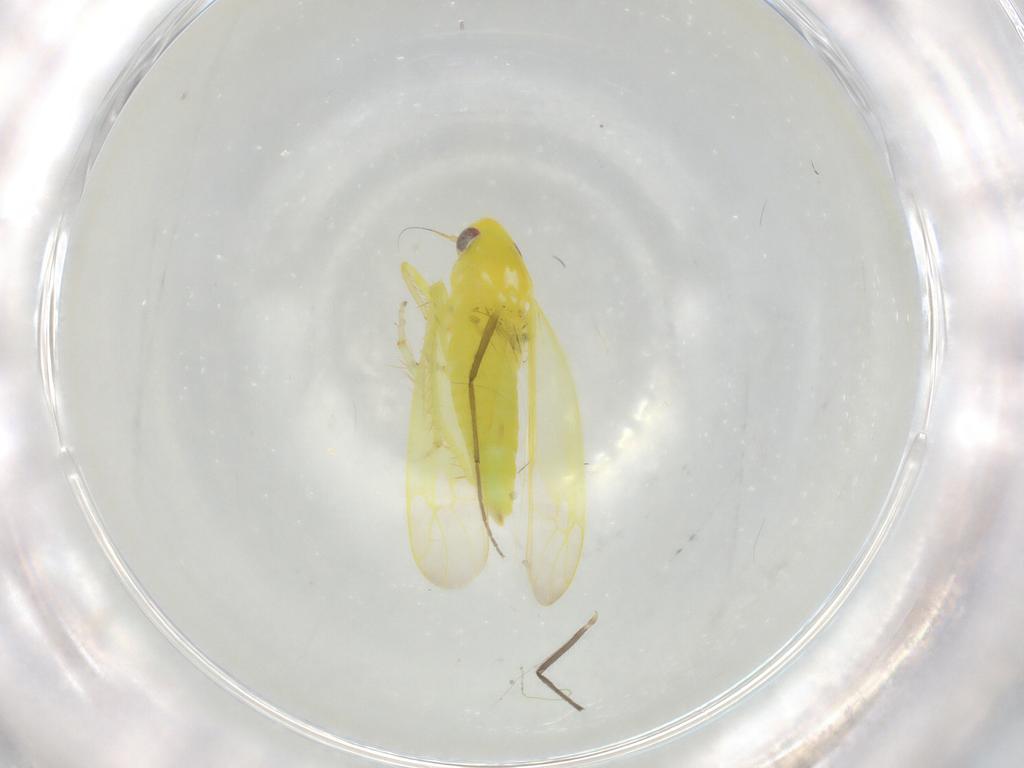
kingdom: Animalia
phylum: Arthropoda
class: Insecta
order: Hemiptera
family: Cicadellidae
